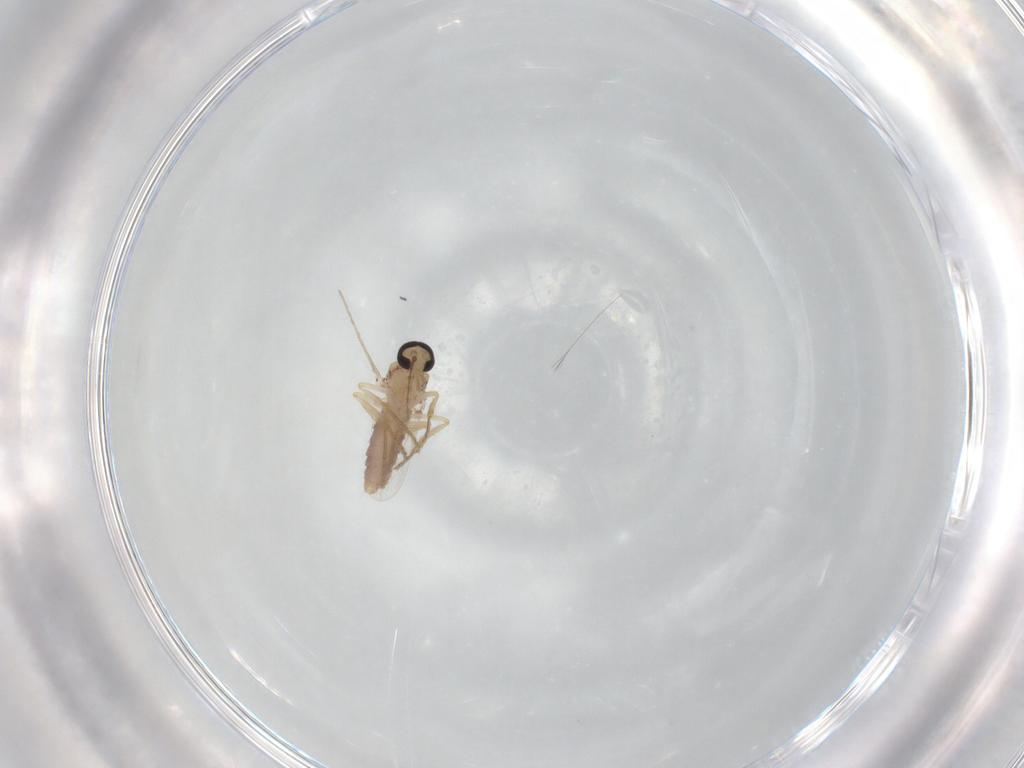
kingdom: Animalia
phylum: Arthropoda
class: Insecta
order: Diptera
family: Ceratopogonidae
